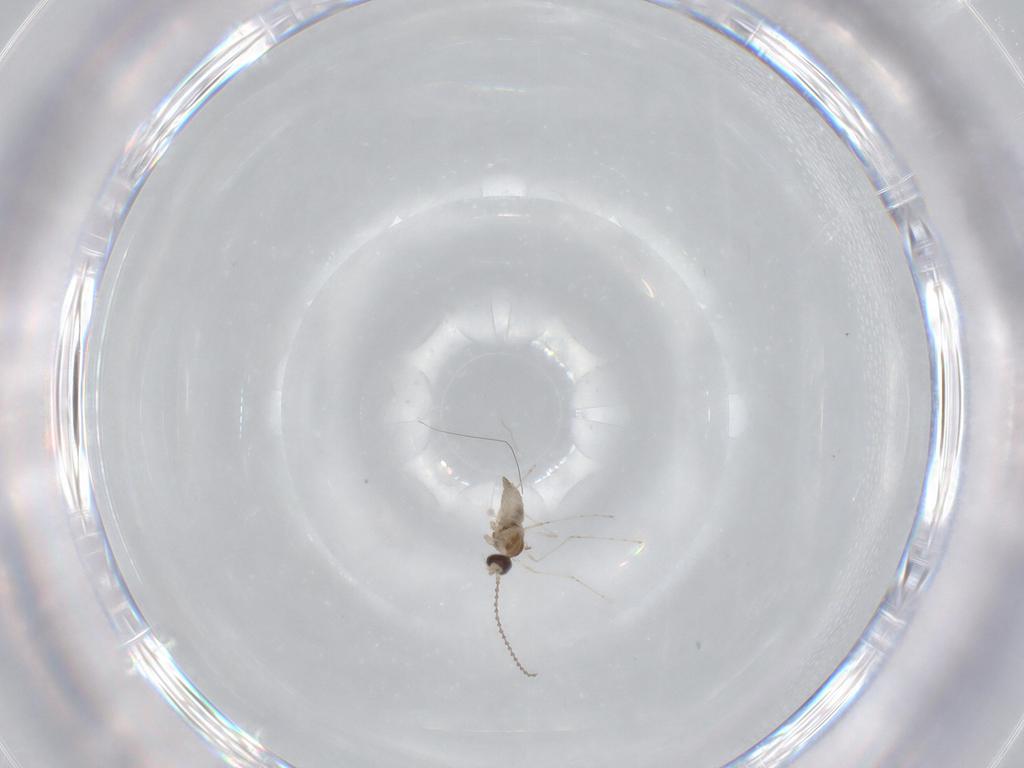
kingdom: Animalia
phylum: Arthropoda
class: Insecta
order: Diptera
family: Cecidomyiidae
